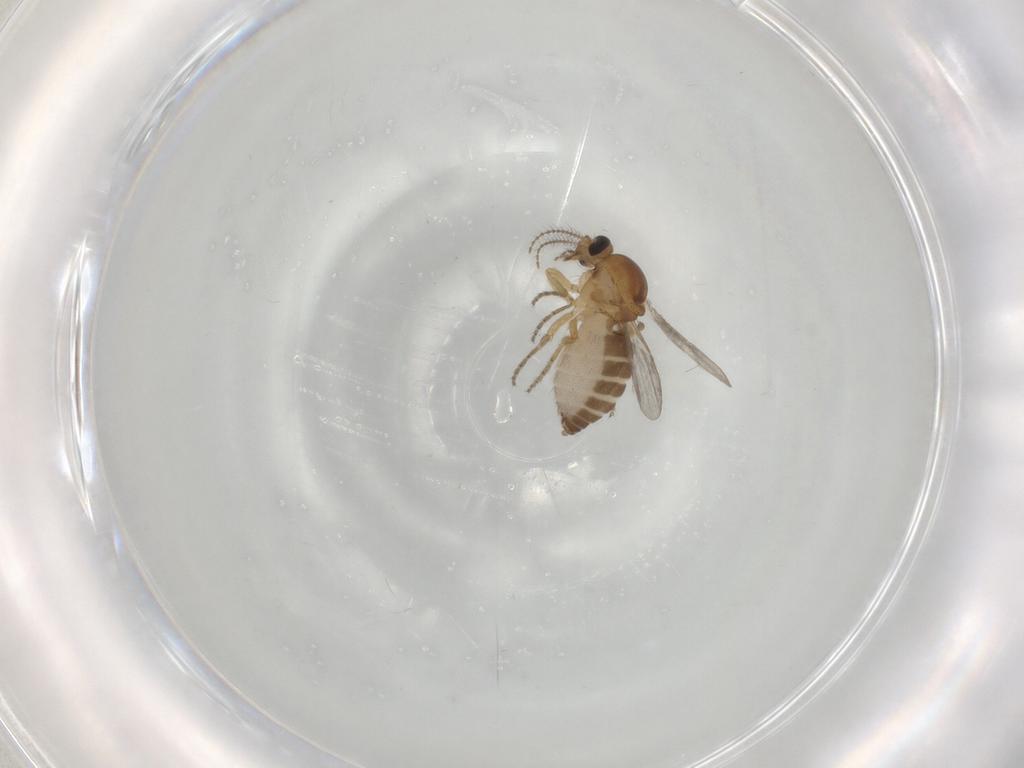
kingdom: Animalia
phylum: Arthropoda
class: Insecta
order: Diptera
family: Ceratopogonidae
